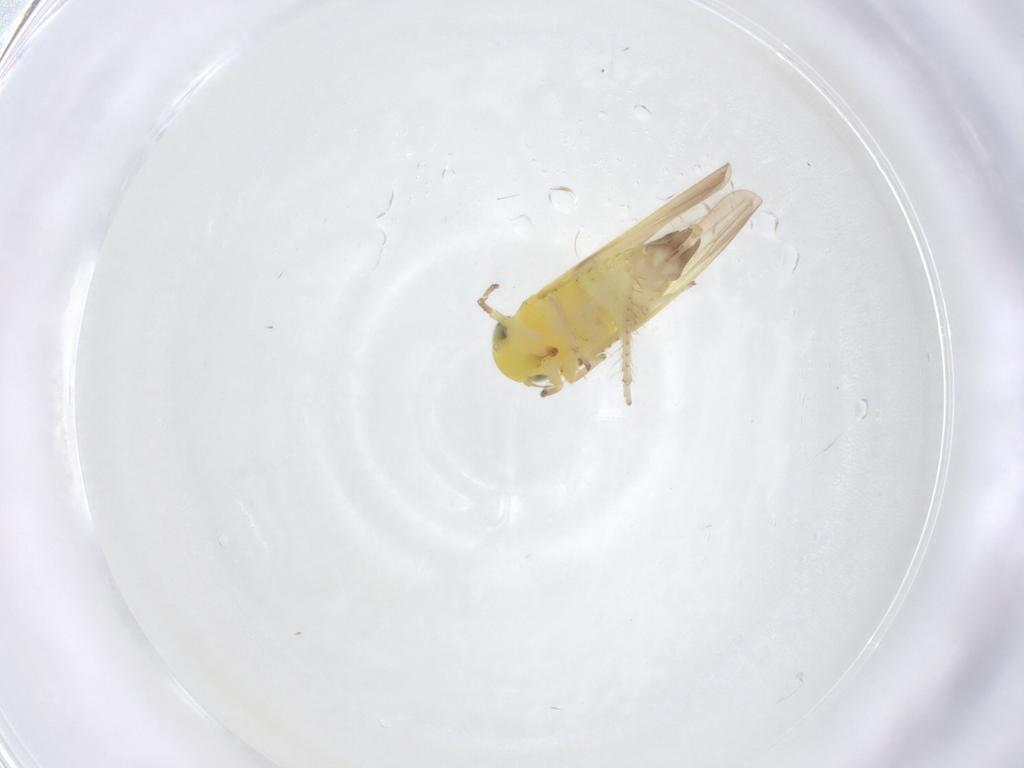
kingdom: Animalia
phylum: Arthropoda
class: Insecta
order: Hemiptera
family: Cicadellidae
